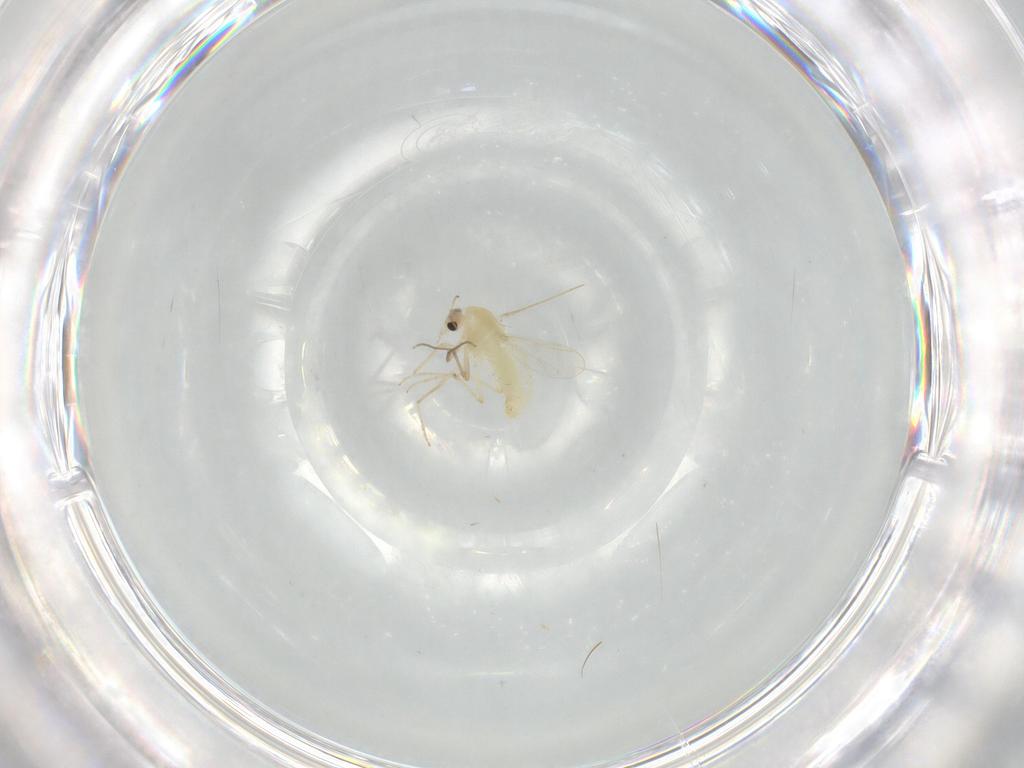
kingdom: Animalia
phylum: Arthropoda
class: Insecta
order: Diptera
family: Chironomidae
